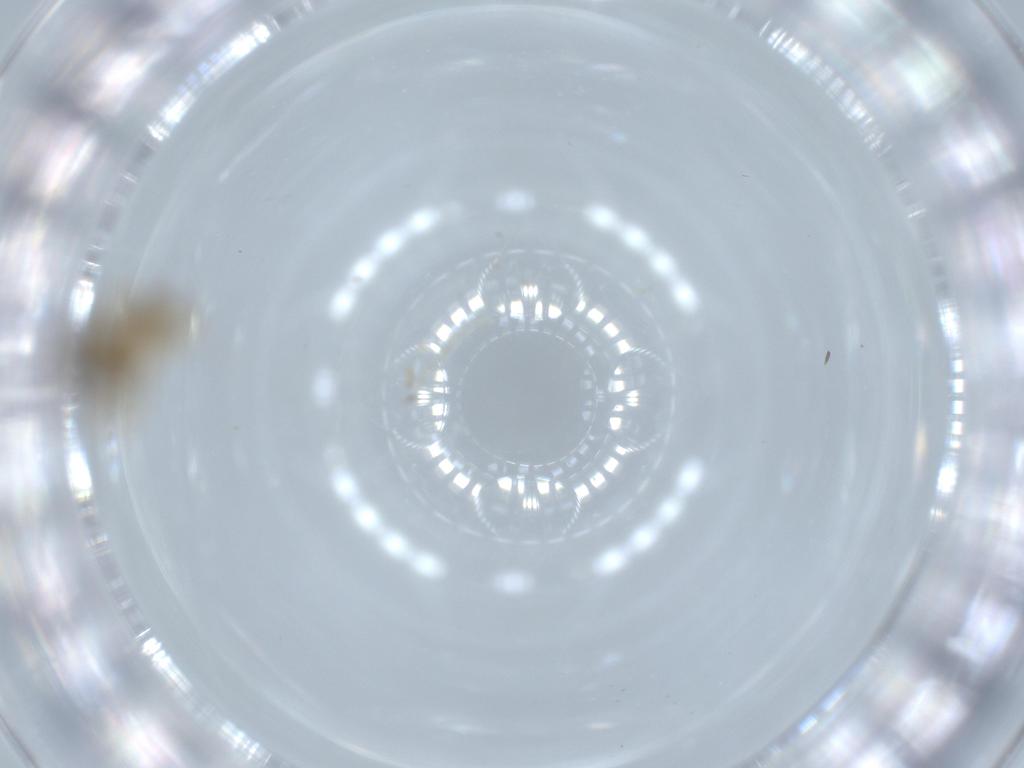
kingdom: Animalia
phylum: Arthropoda
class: Insecta
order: Diptera
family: Hybotidae
